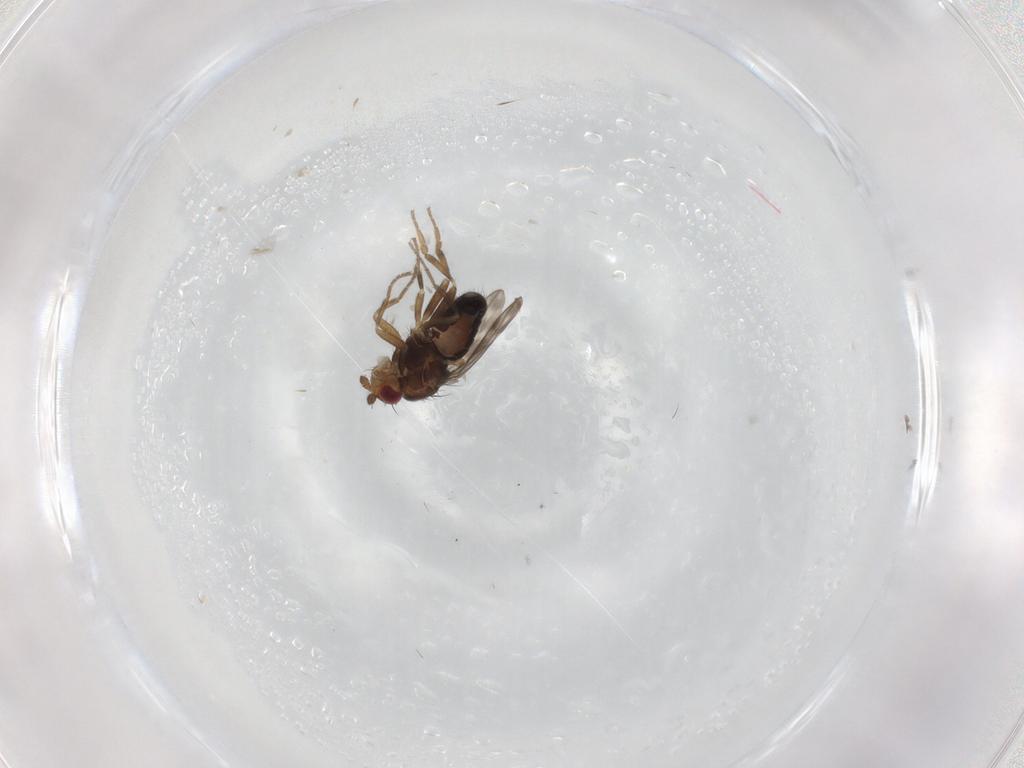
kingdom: Animalia
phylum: Arthropoda
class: Insecta
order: Diptera
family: Sphaeroceridae
